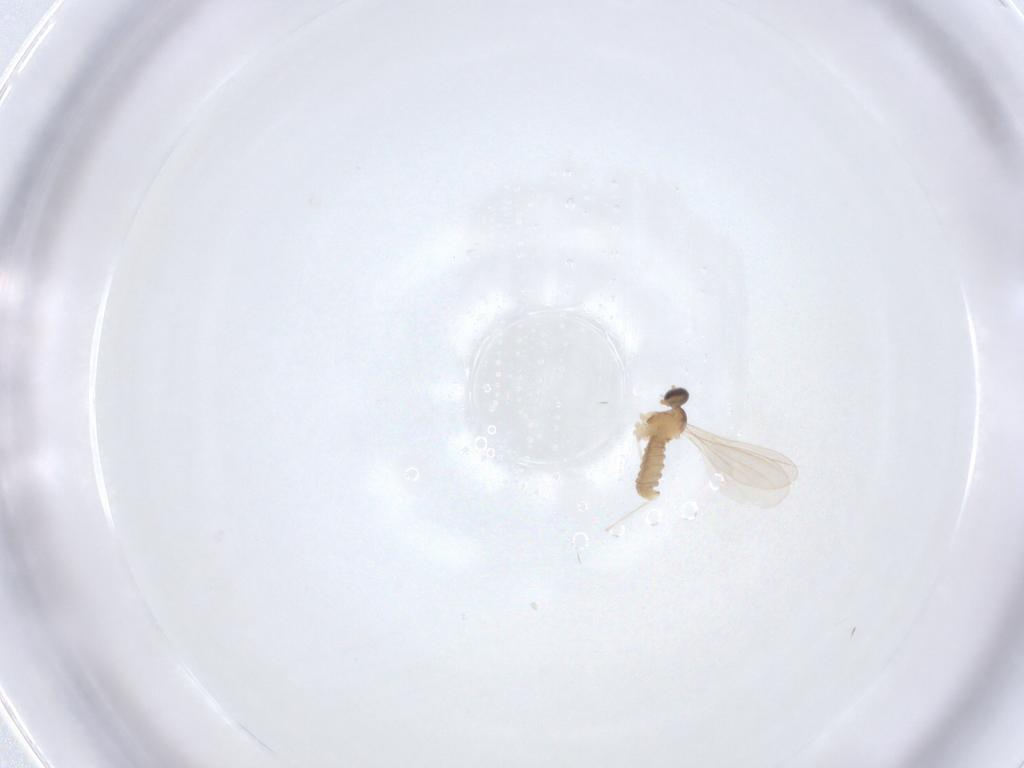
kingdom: Animalia
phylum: Arthropoda
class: Insecta
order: Diptera
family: Cecidomyiidae
